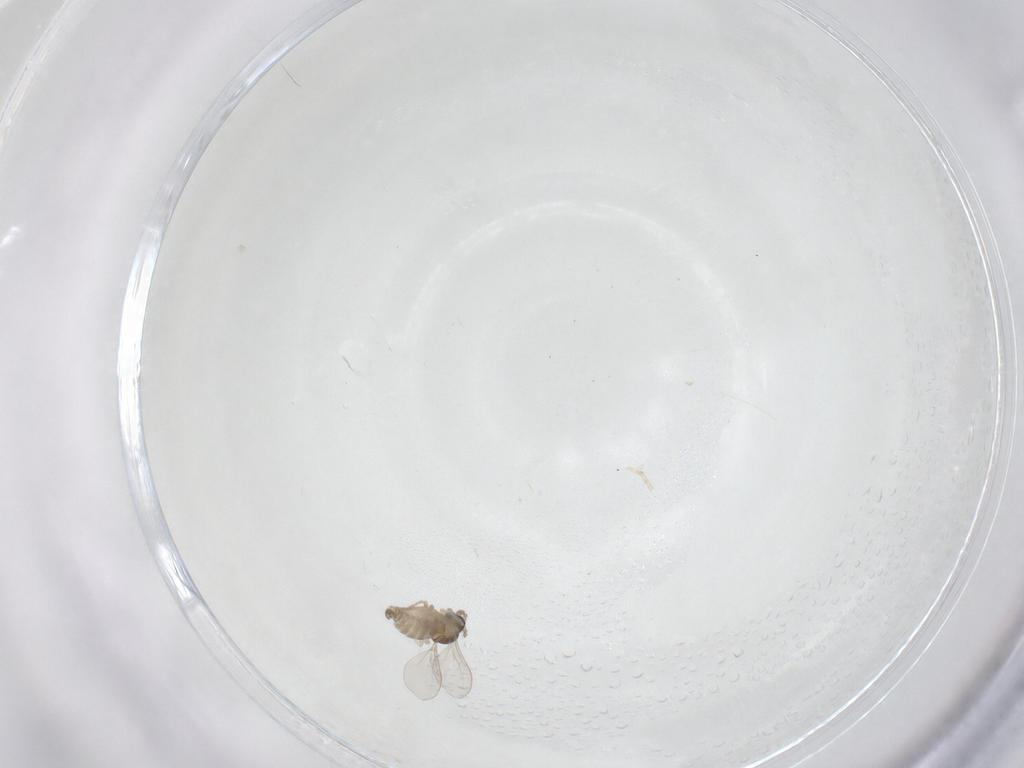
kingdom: Animalia
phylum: Arthropoda
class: Insecta
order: Diptera
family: Cecidomyiidae
